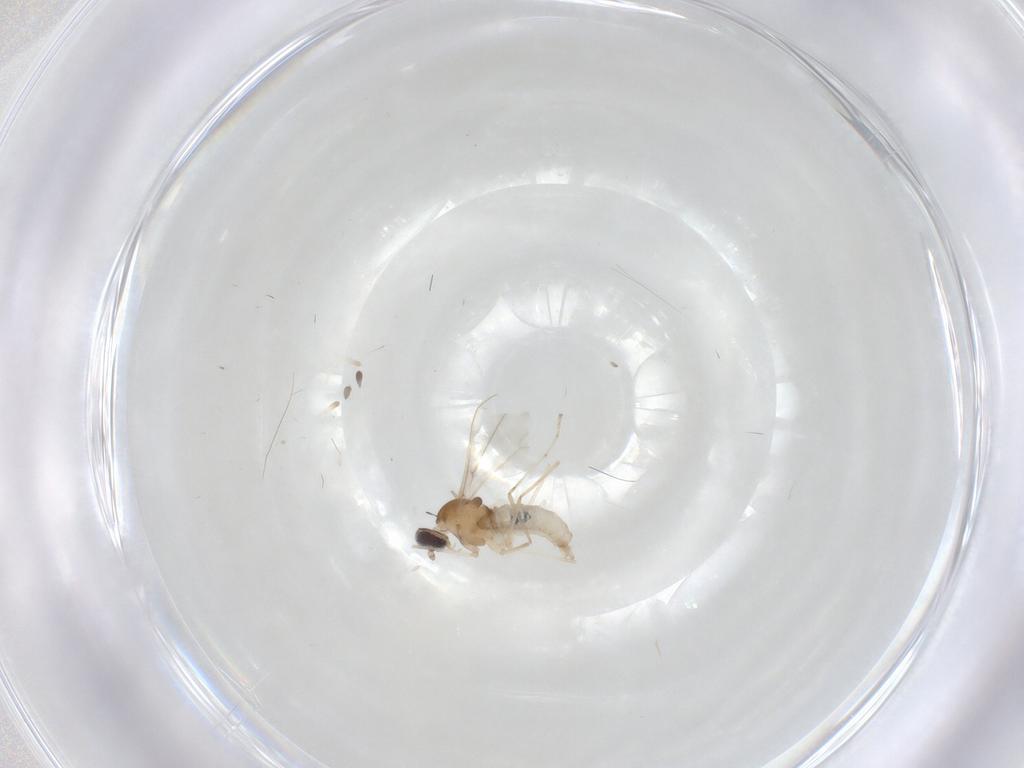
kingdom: Animalia
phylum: Arthropoda
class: Insecta
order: Diptera
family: Cecidomyiidae
